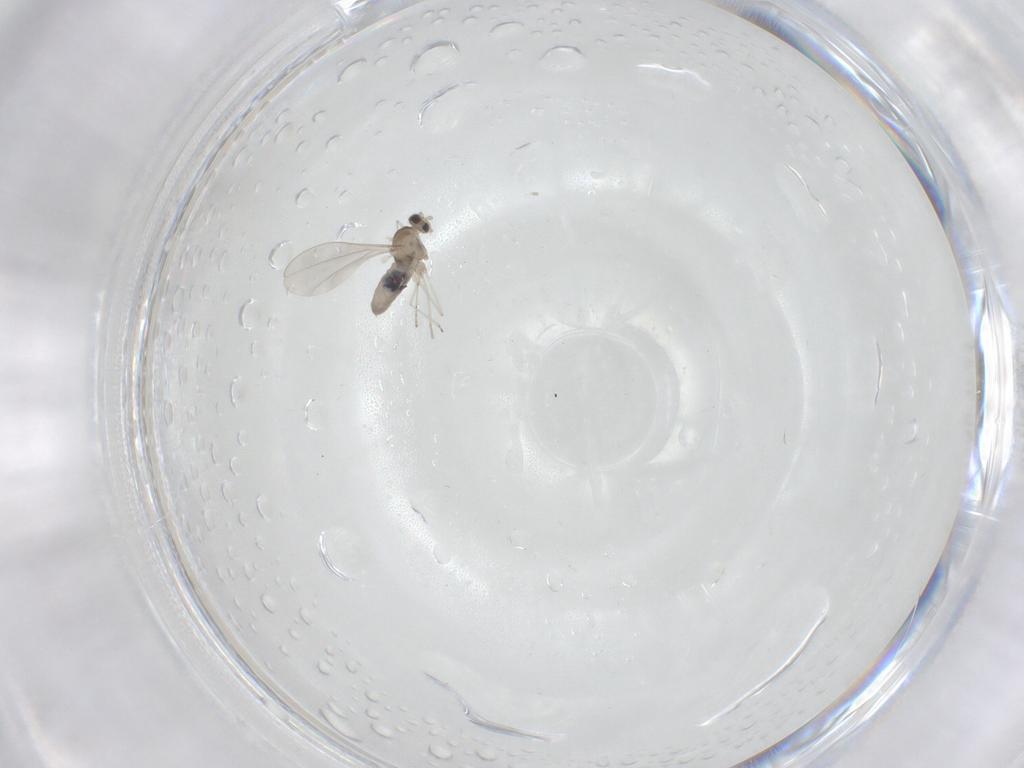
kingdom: Animalia
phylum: Arthropoda
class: Insecta
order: Diptera
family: Cecidomyiidae
